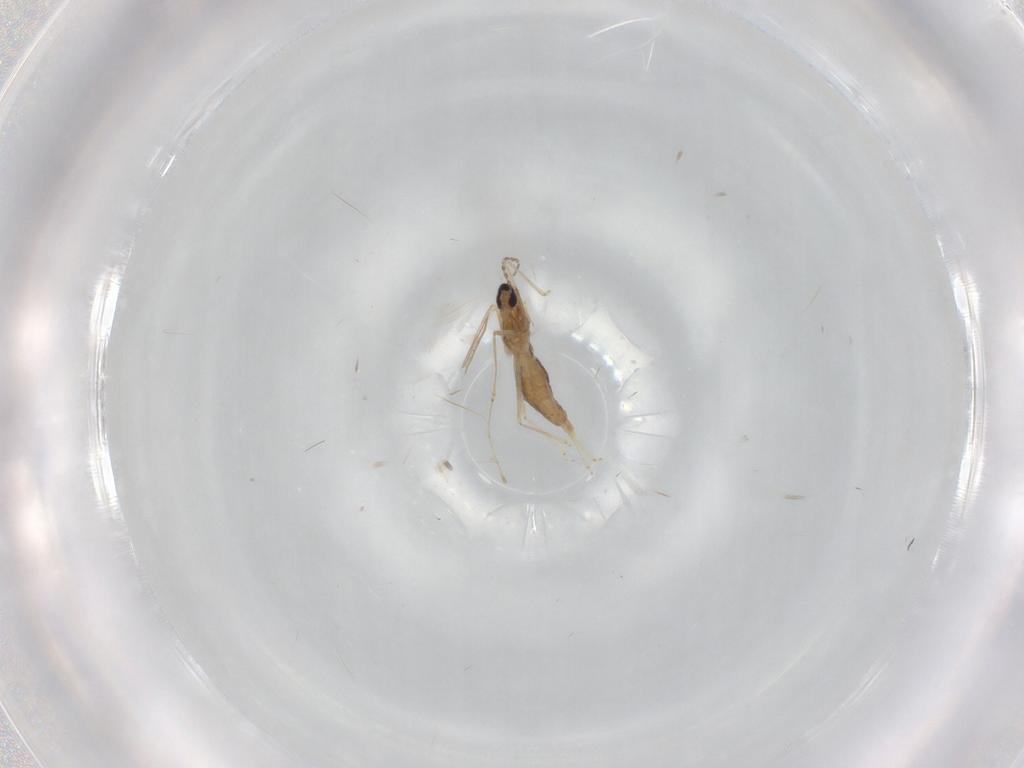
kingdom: Animalia
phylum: Arthropoda
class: Insecta
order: Diptera
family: Cecidomyiidae
